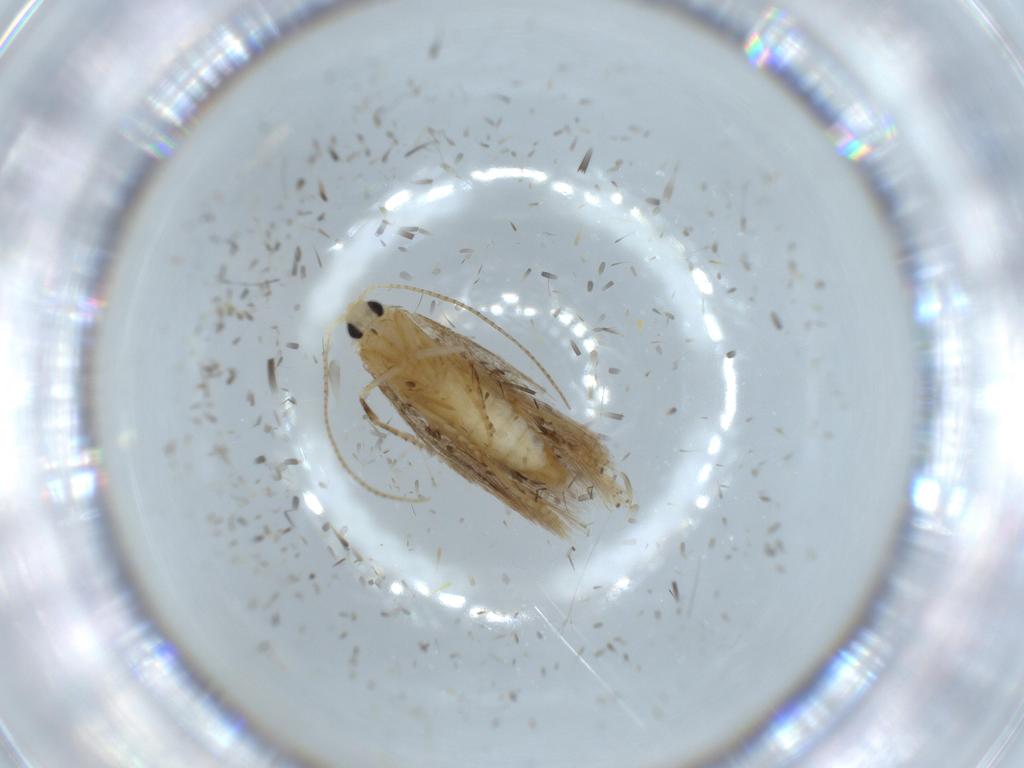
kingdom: Animalia
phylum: Arthropoda
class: Insecta
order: Lepidoptera
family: Bucculatricidae
